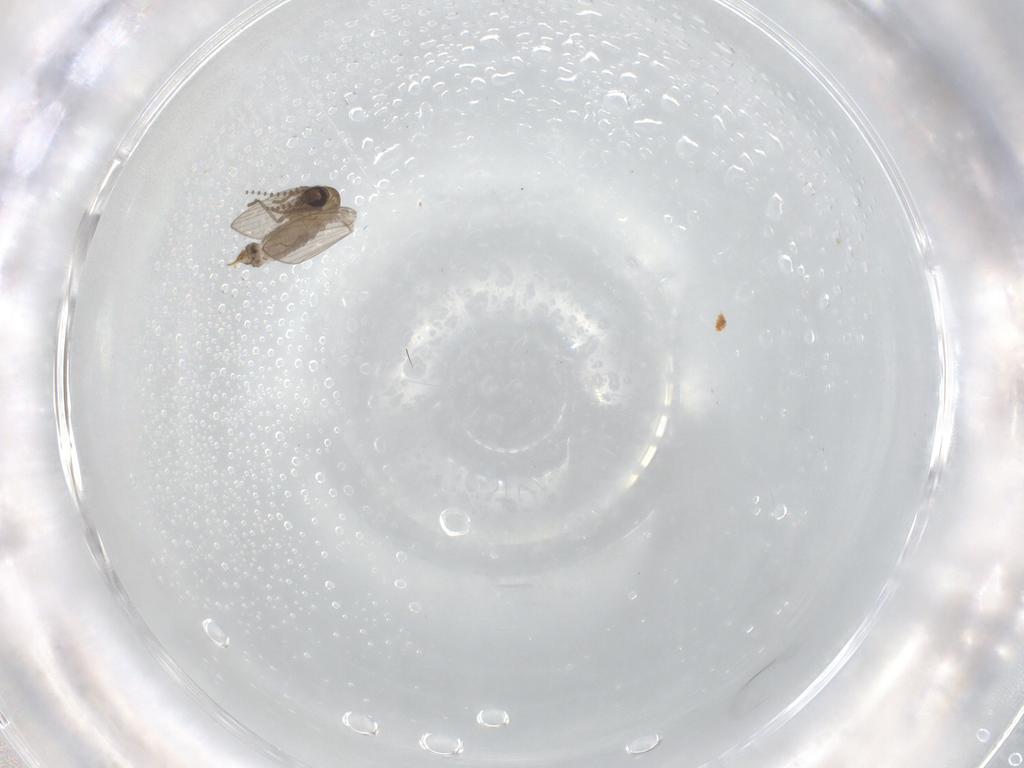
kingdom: Animalia
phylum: Arthropoda
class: Insecta
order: Diptera
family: Psychodidae
